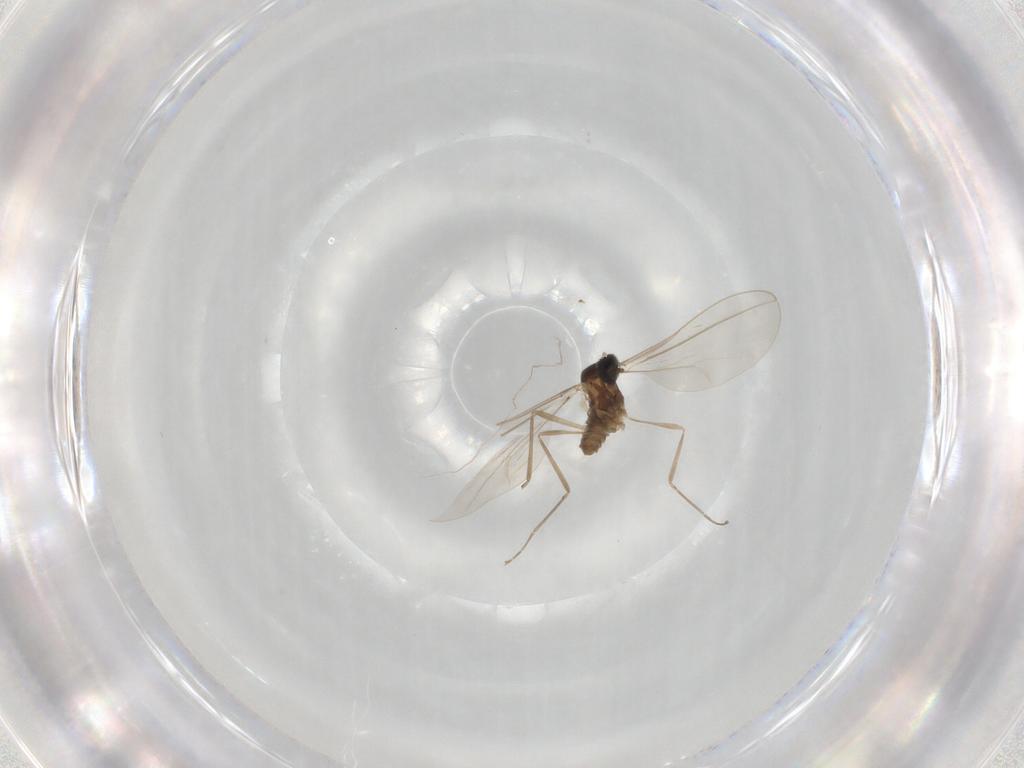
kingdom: Animalia
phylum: Arthropoda
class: Insecta
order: Diptera
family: Cecidomyiidae
